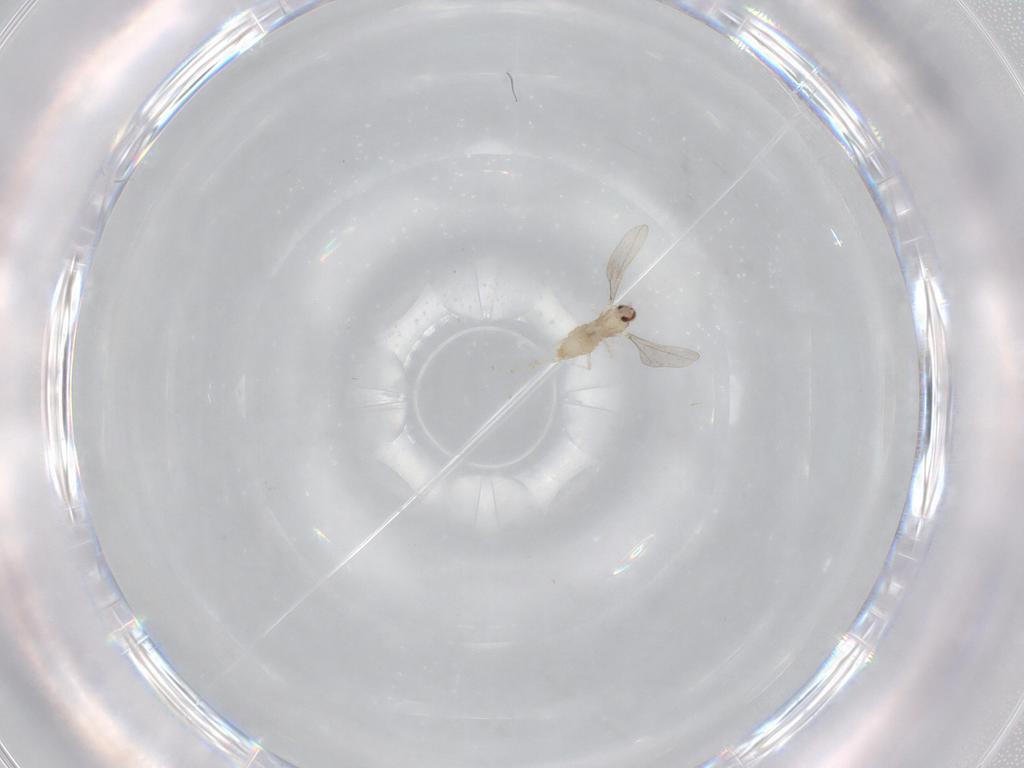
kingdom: Animalia
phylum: Arthropoda
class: Insecta
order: Diptera
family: Cecidomyiidae
